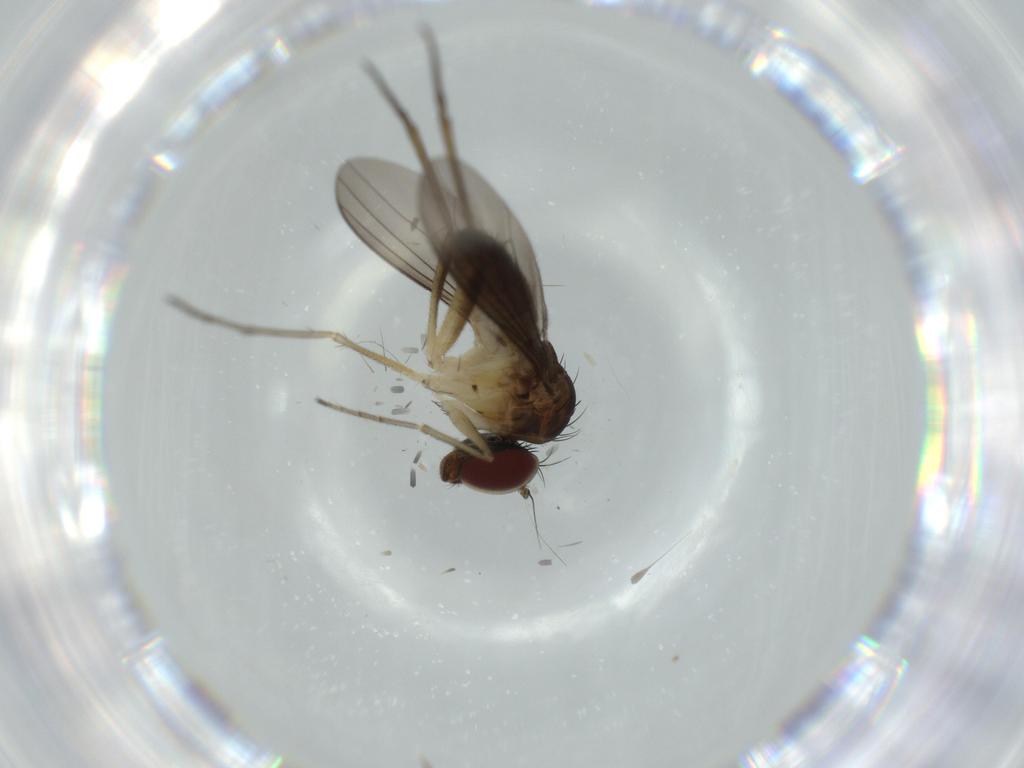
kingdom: Animalia
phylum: Arthropoda
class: Insecta
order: Diptera
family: Dolichopodidae
